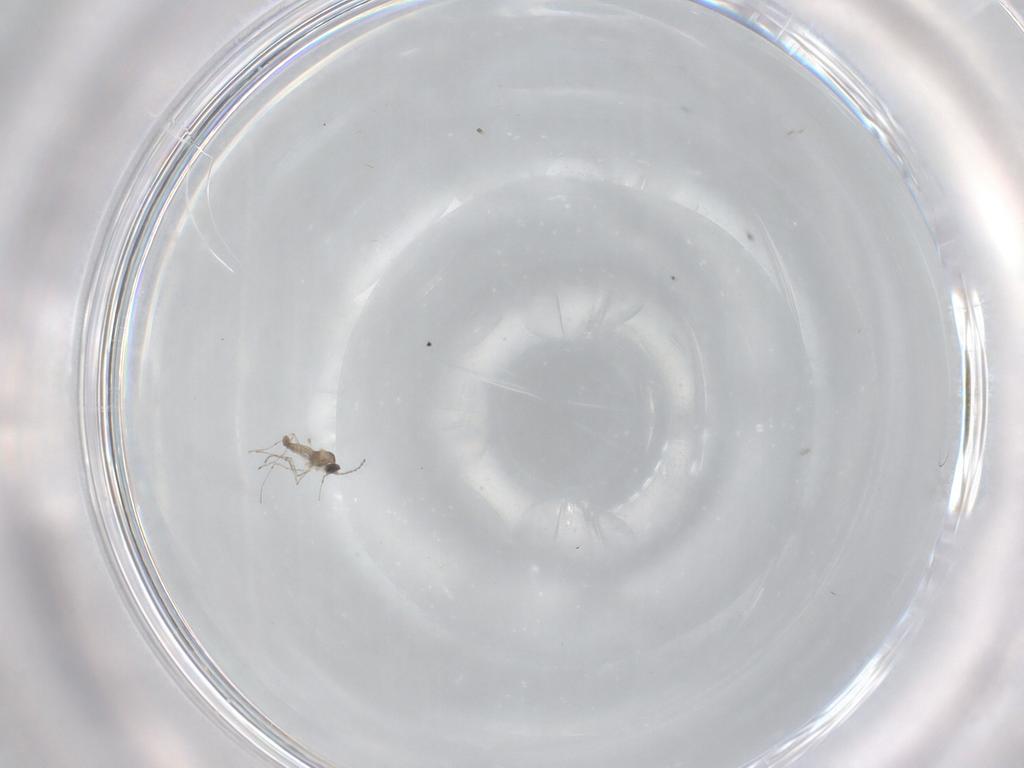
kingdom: Animalia
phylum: Arthropoda
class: Insecta
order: Diptera
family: Cecidomyiidae
